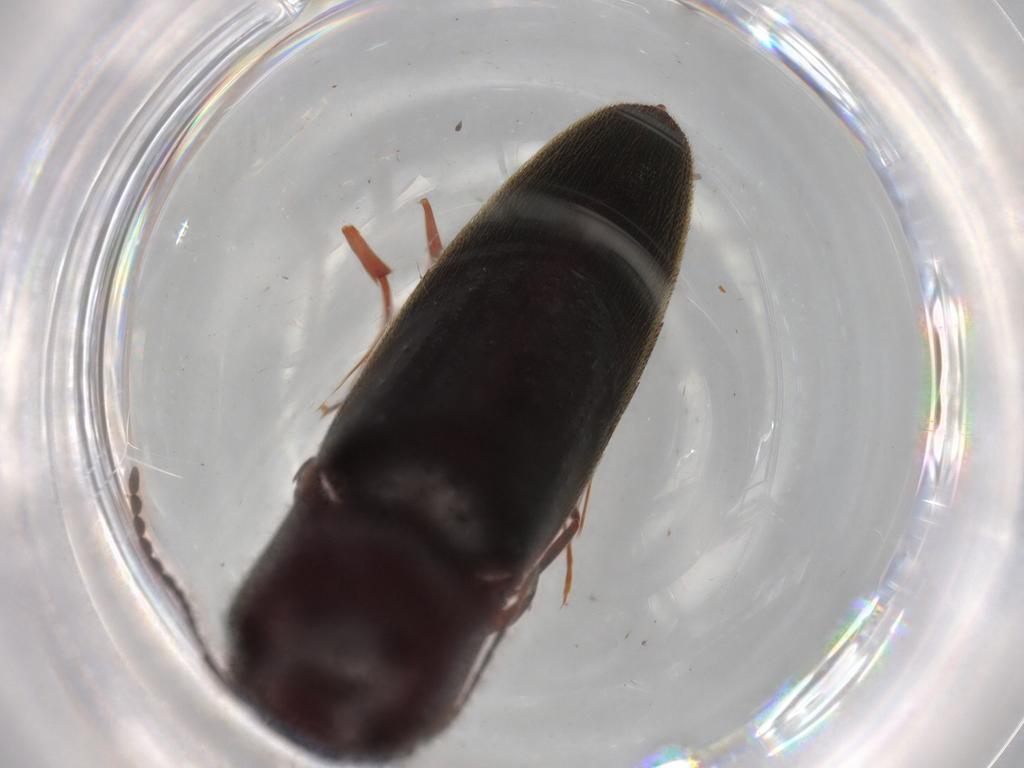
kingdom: Animalia
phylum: Arthropoda
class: Insecta
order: Coleoptera
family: Eucnemidae
